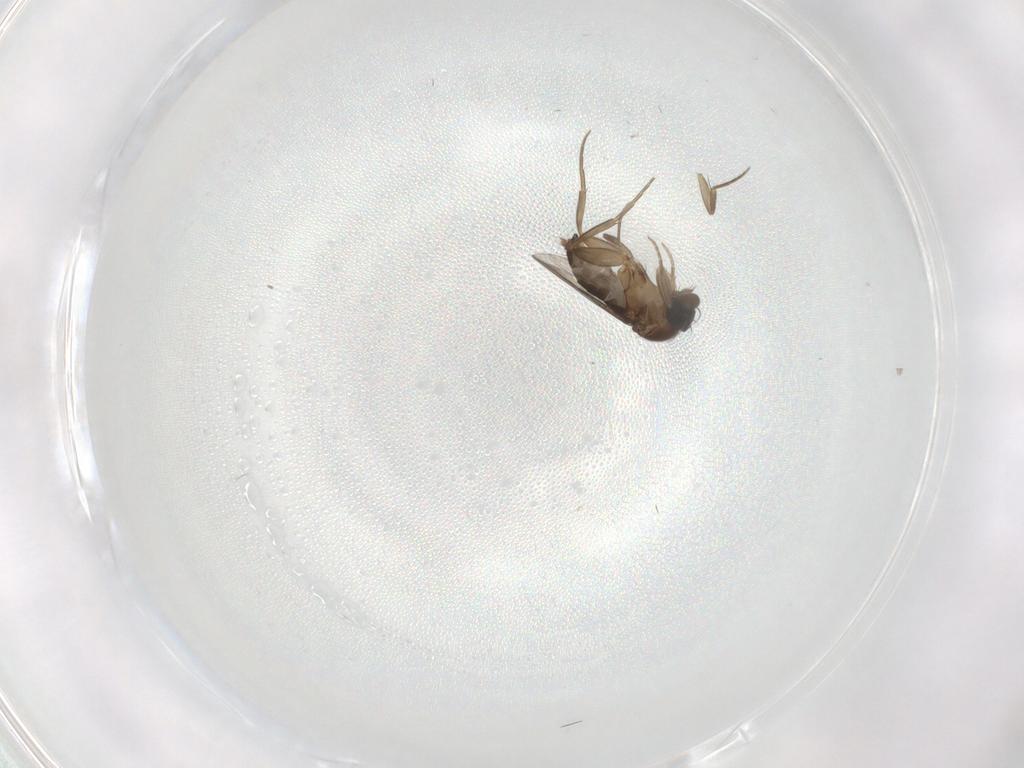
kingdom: Animalia
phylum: Arthropoda
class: Insecta
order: Diptera
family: Phoridae
